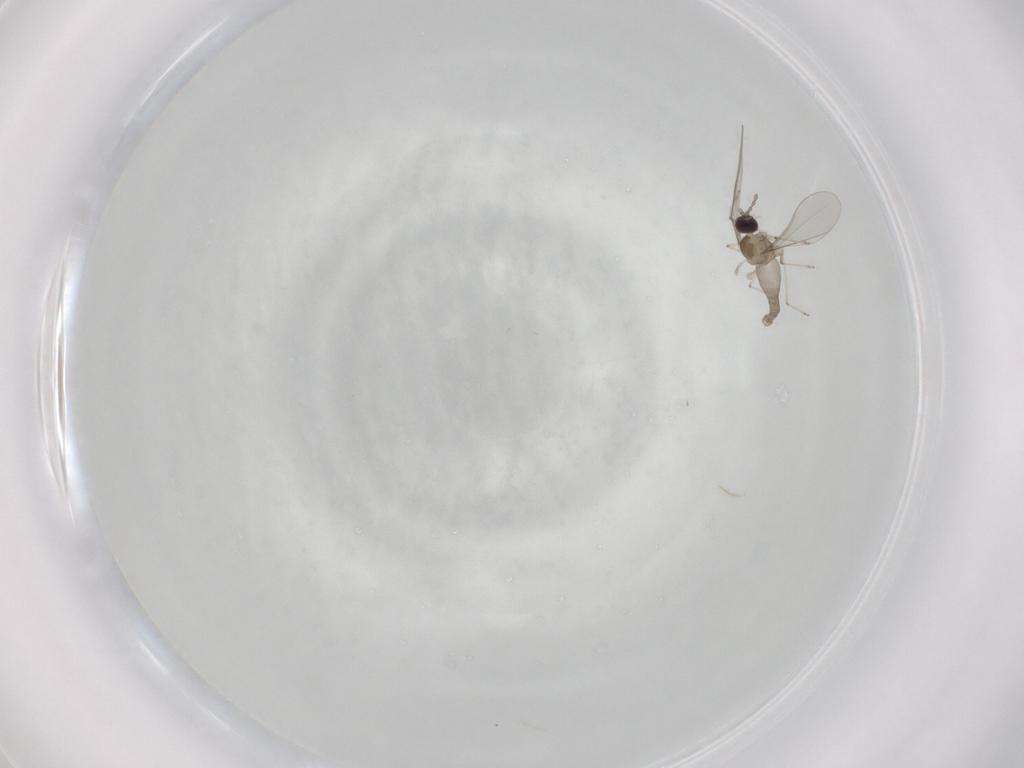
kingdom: Animalia
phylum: Arthropoda
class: Insecta
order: Diptera
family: Cecidomyiidae
